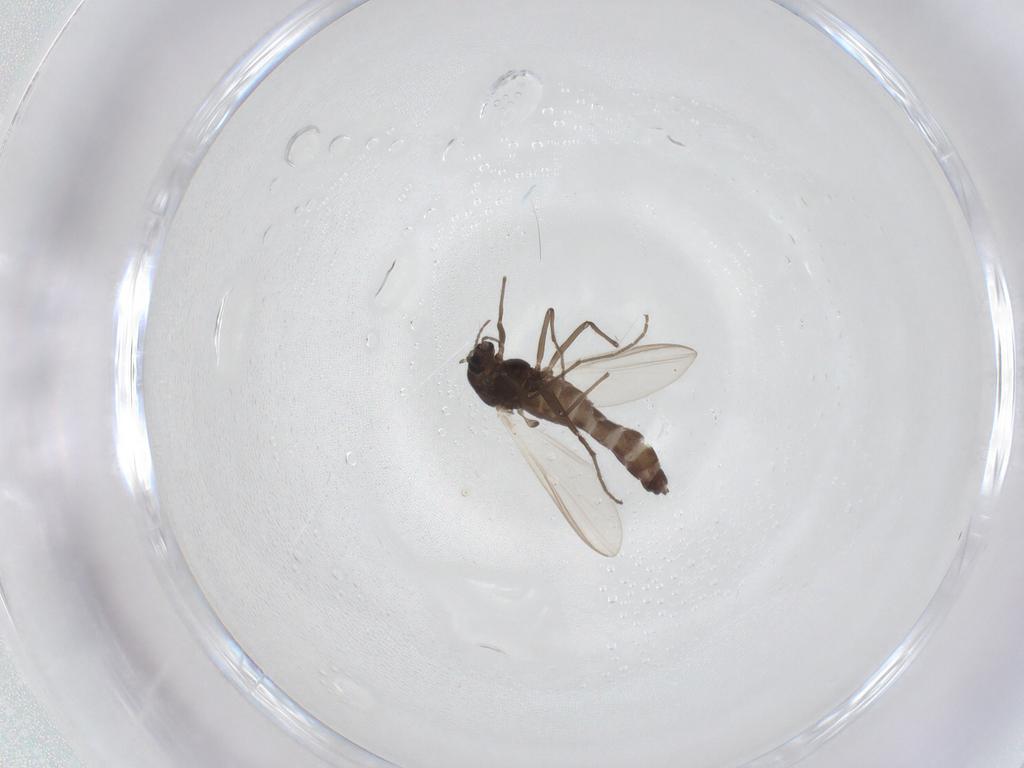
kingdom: Animalia
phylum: Arthropoda
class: Insecta
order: Diptera
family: Chironomidae
